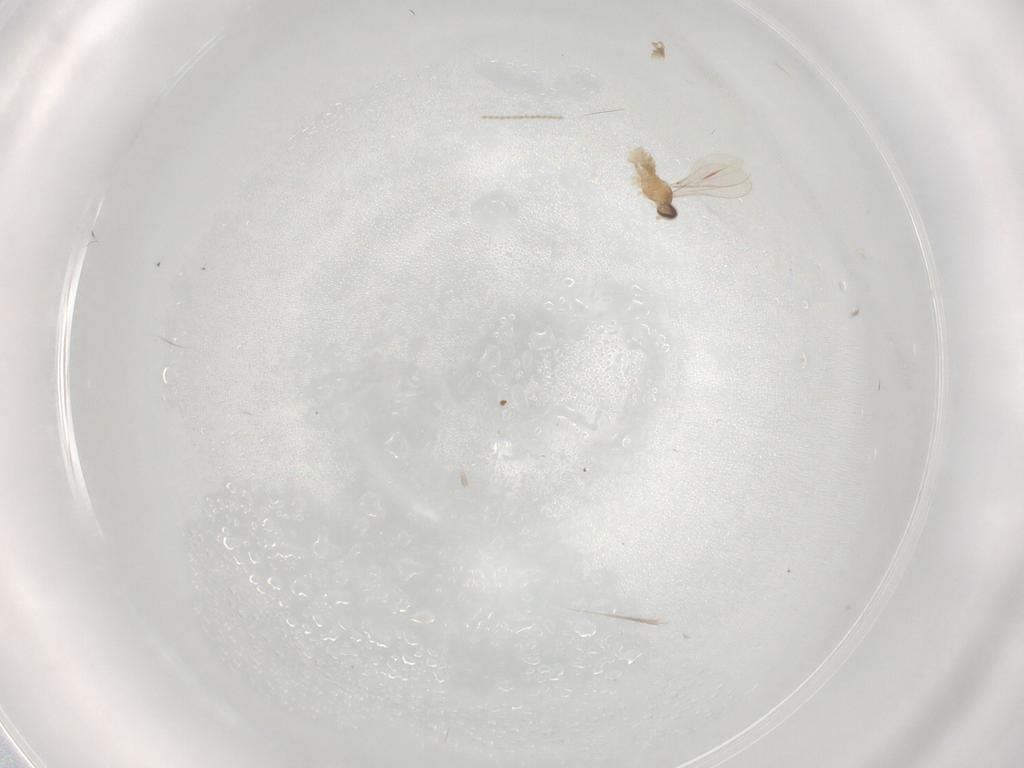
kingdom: Animalia
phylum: Arthropoda
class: Insecta
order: Diptera
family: Cecidomyiidae
